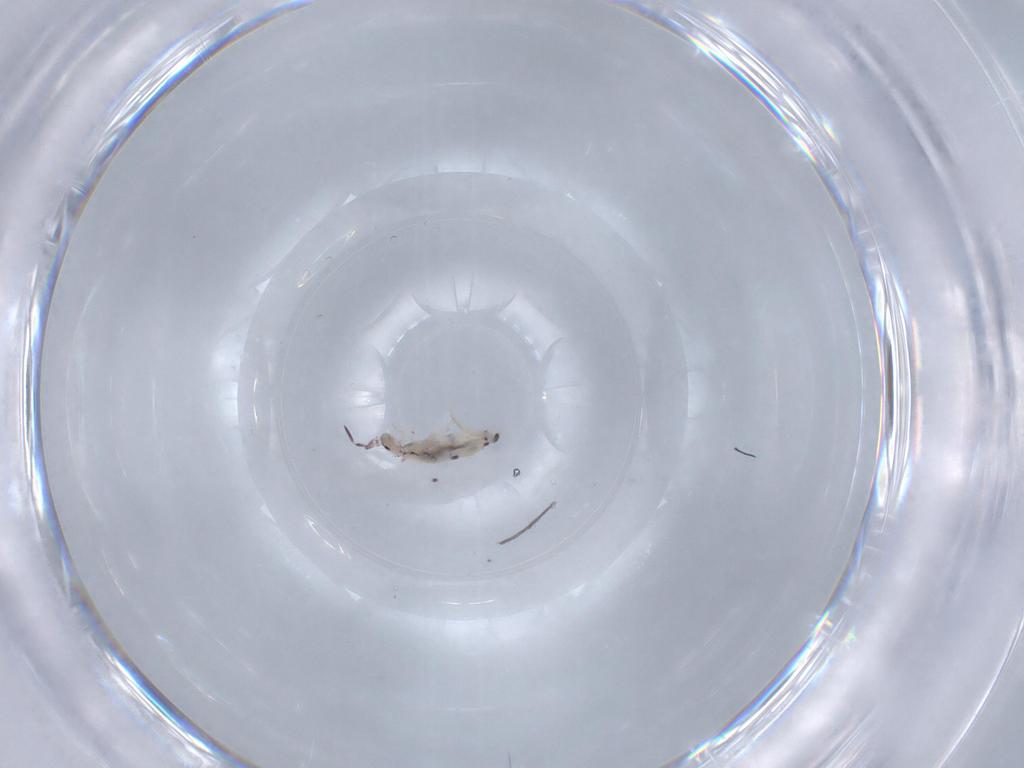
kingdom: Animalia
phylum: Arthropoda
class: Collembola
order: Poduromorpha
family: Hypogastruridae
